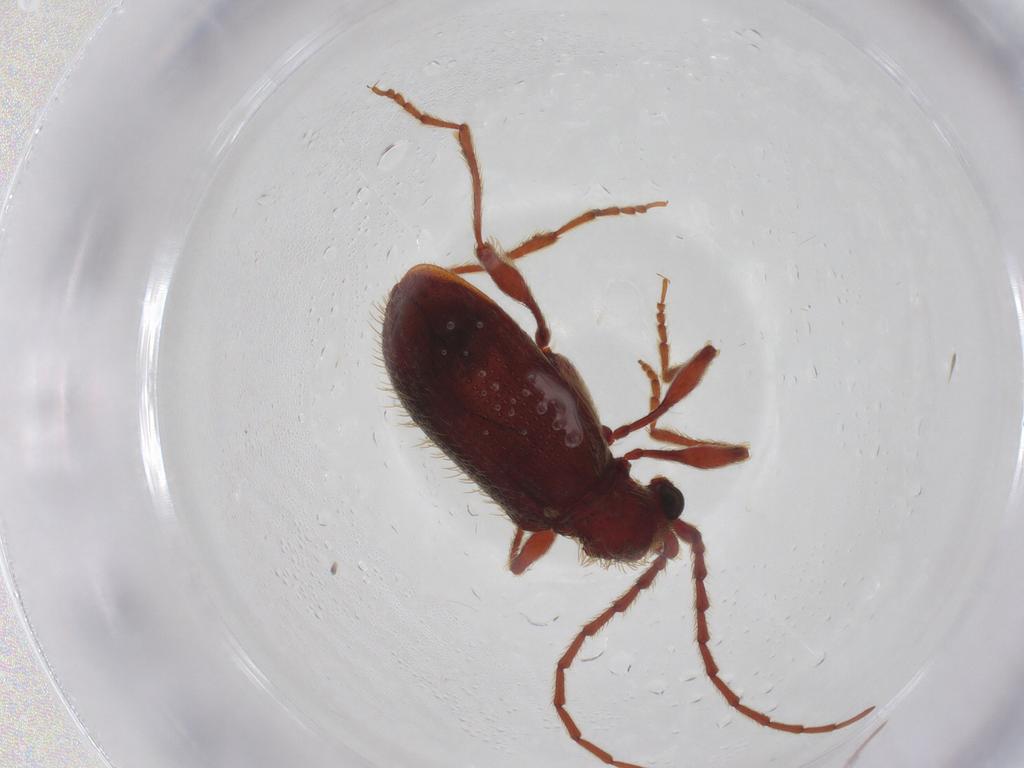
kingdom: Animalia
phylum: Arthropoda
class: Insecta
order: Coleoptera
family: Ptinidae
